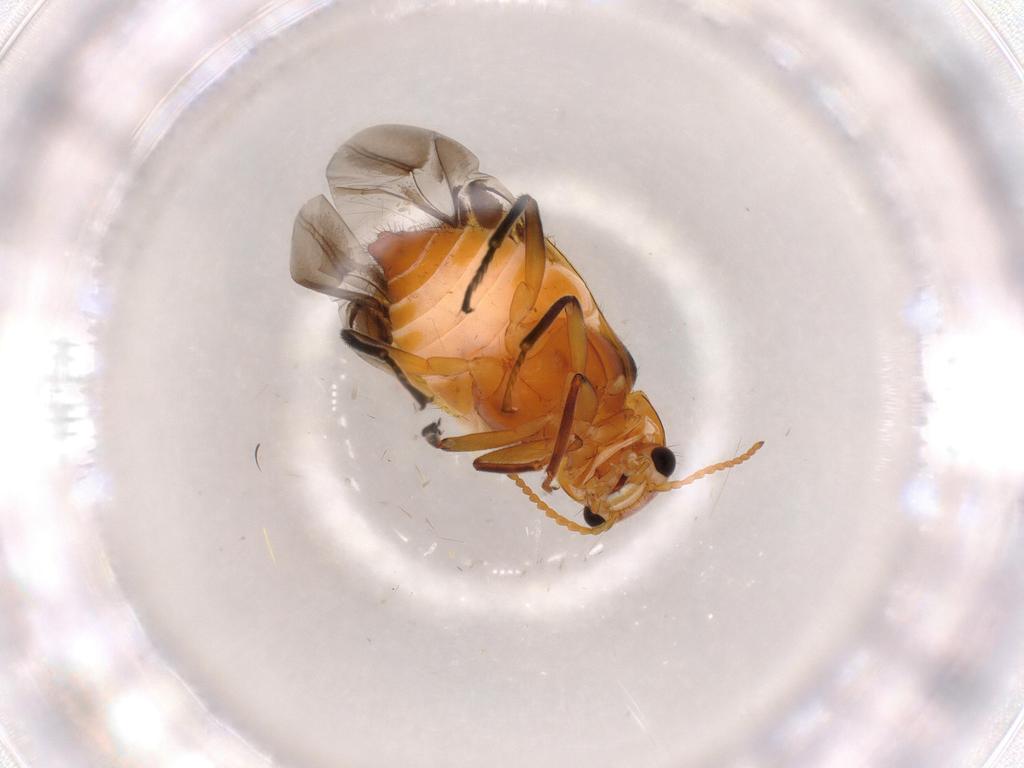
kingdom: Animalia
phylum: Arthropoda
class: Insecta
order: Coleoptera
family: Melyridae
